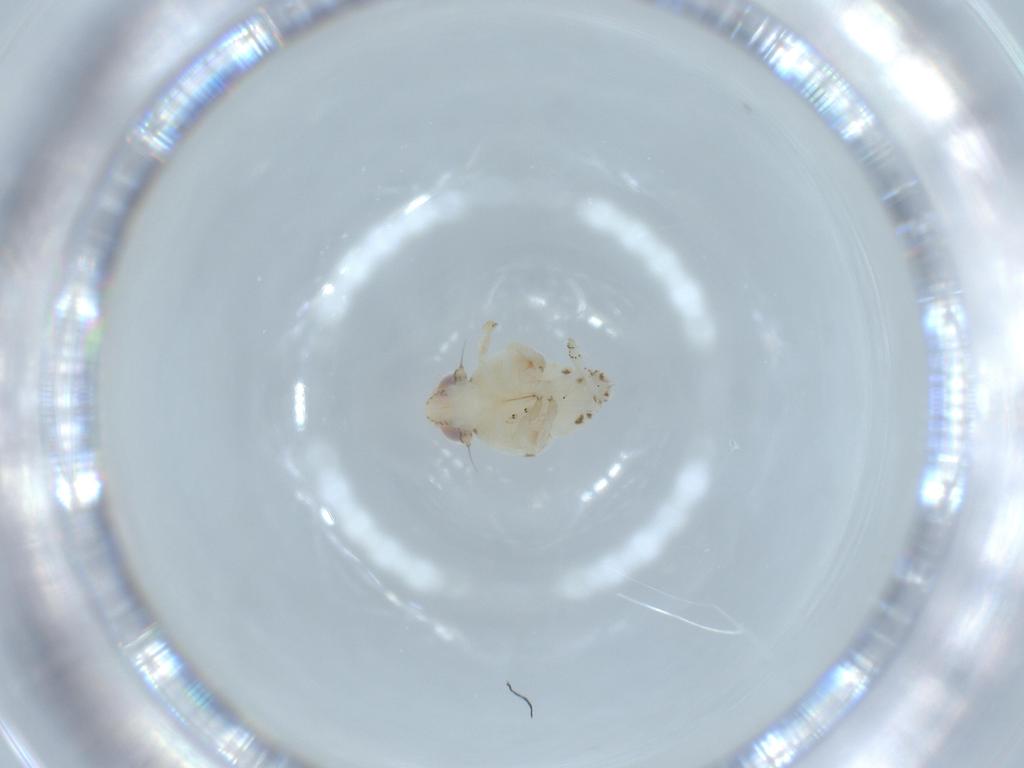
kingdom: Animalia
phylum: Arthropoda
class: Insecta
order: Hemiptera
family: Nogodinidae
